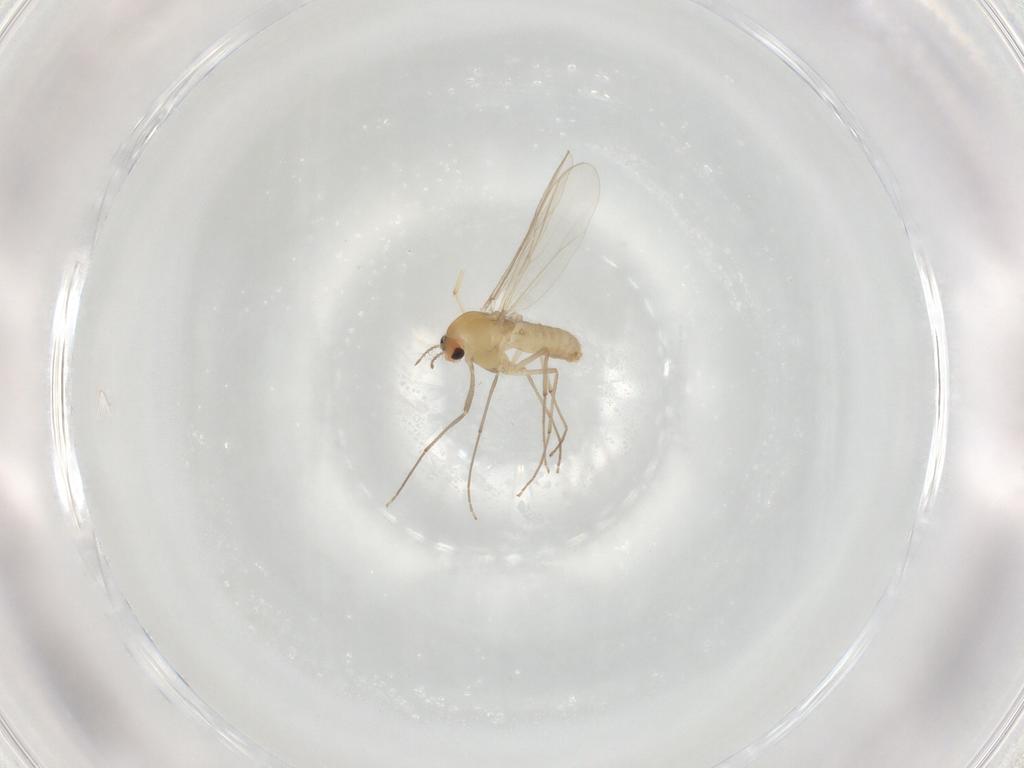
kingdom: Animalia
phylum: Arthropoda
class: Insecta
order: Diptera
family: Chironomidae
